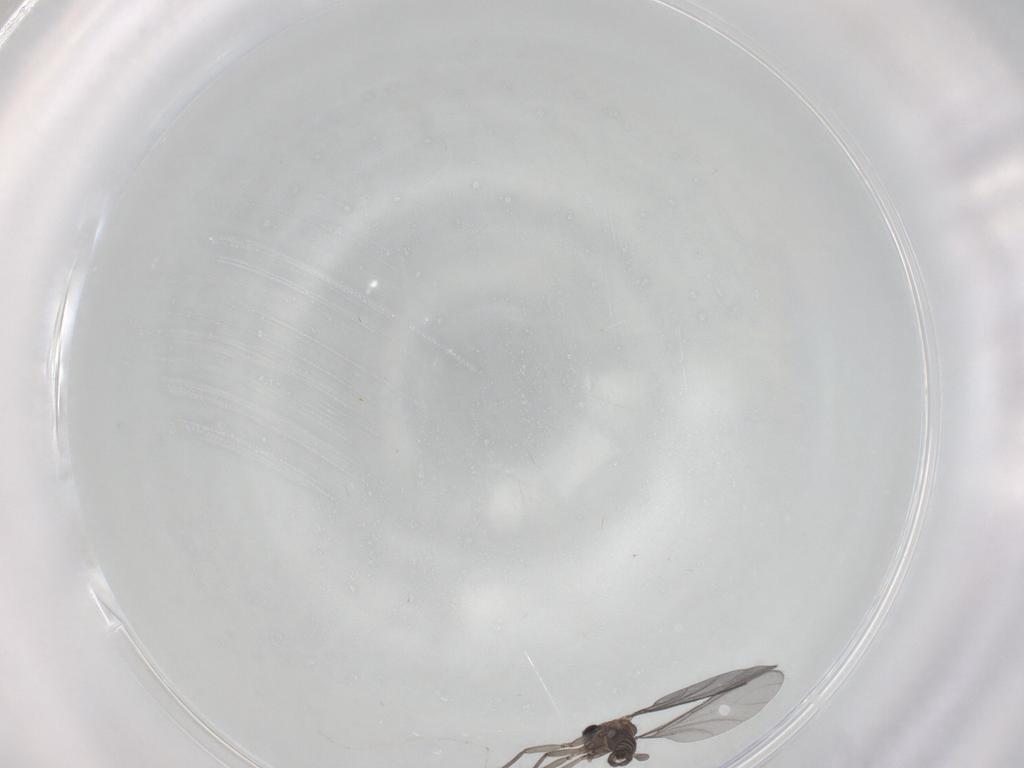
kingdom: Animalia
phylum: Arthropoda
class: Insecta
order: Diptera
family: Sciaridae
